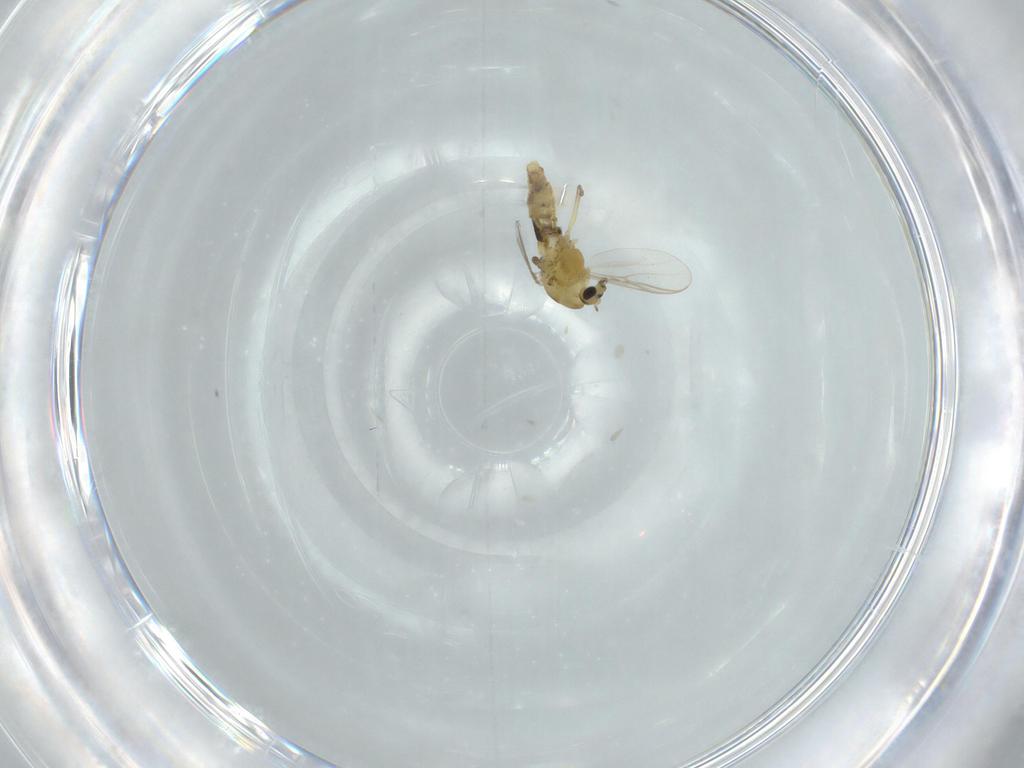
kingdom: Animalia
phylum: Arthropoda
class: Insecta
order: Diptera
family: Chironomidae
